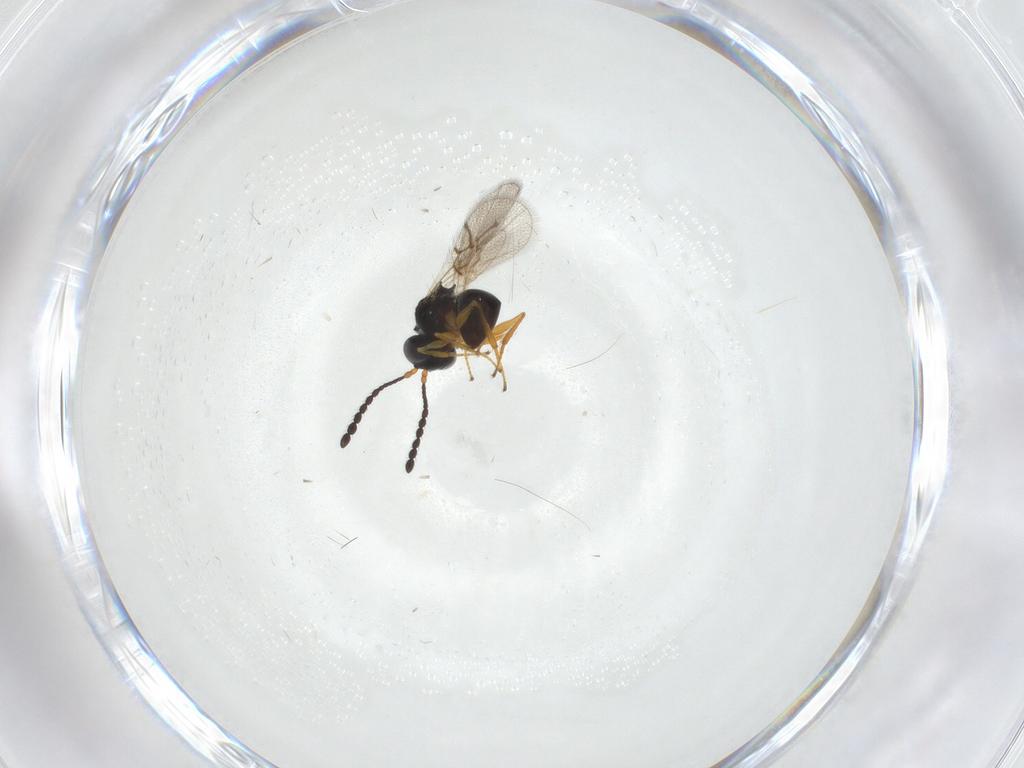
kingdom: Animalia
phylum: Arthropoda
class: Insecta
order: Hymenoptera
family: Figitidae
